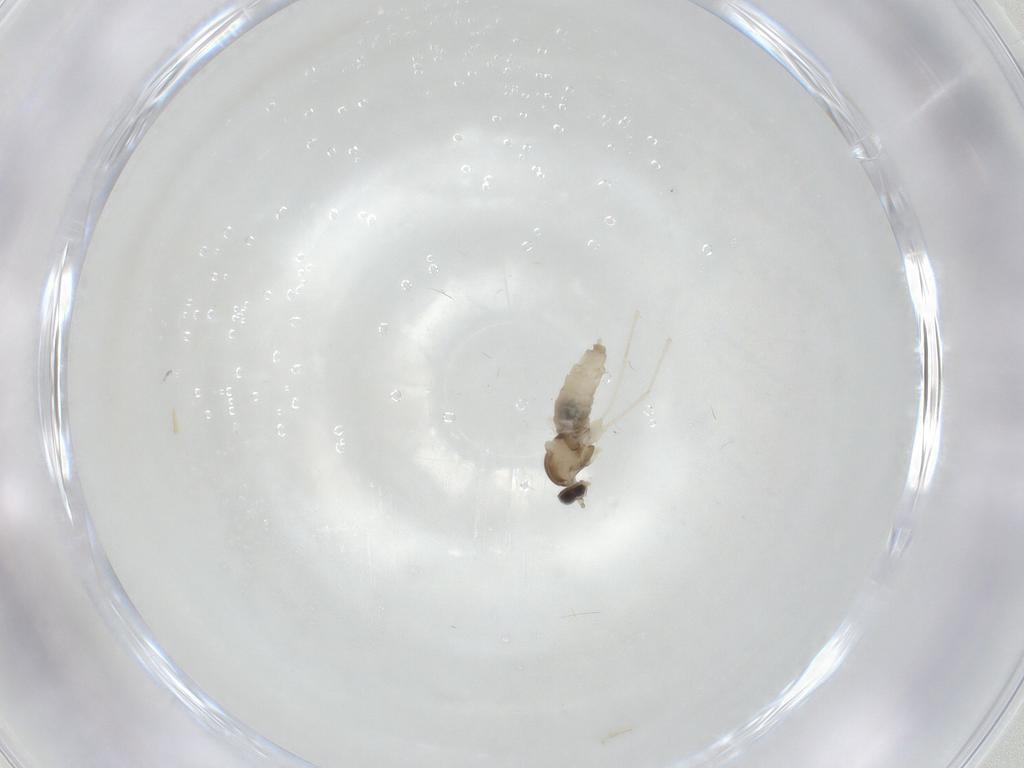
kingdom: Animalia
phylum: Arthropoda
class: Insecta
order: Diptera
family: Cecidomyiidae
